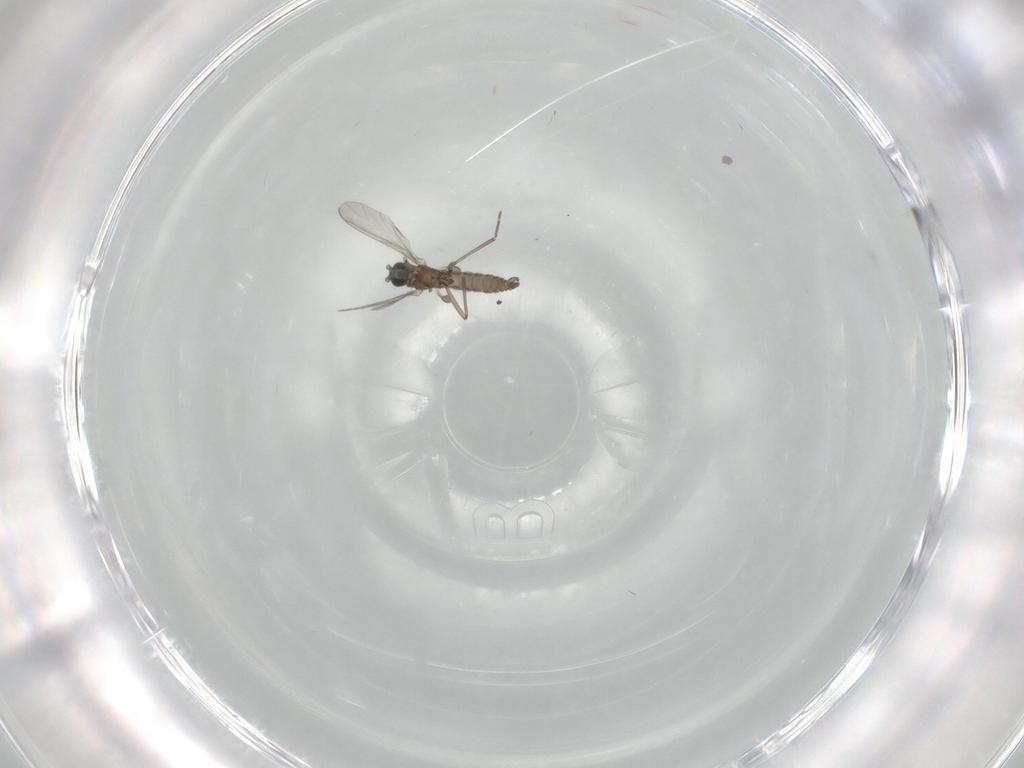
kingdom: Animalia
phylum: Arthropoda
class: Insecta
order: Diptera
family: Sciaridae
